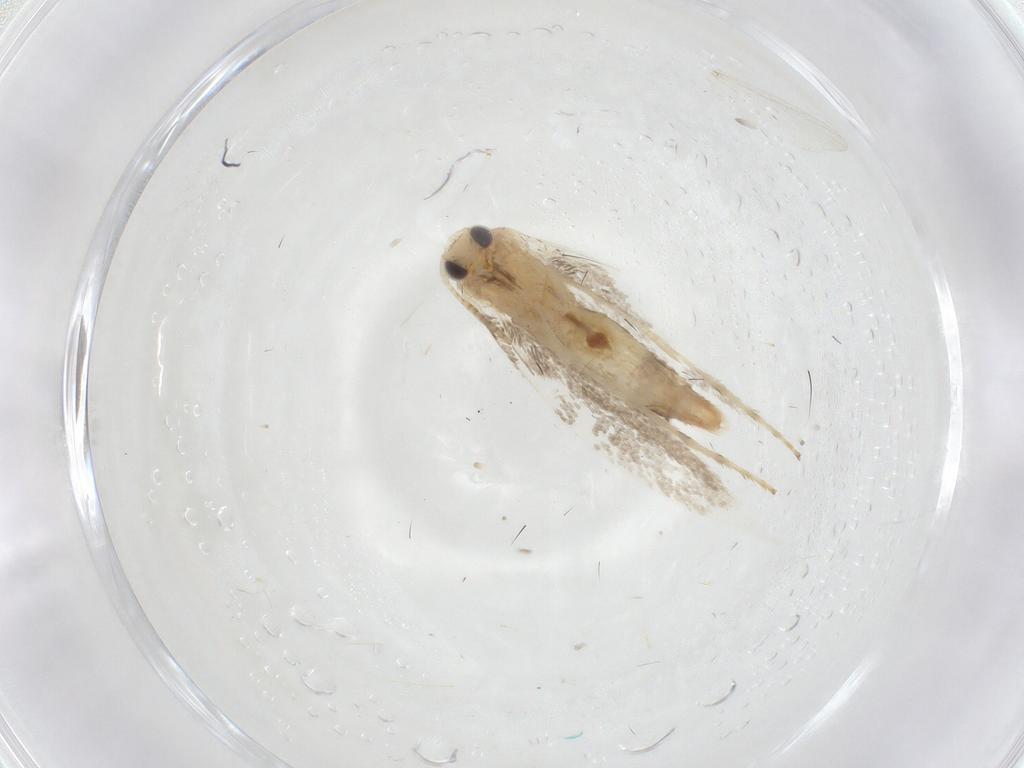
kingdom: Animalia
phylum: Arthropoda
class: Insecta
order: Lepidoptera
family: Gracillariidae
